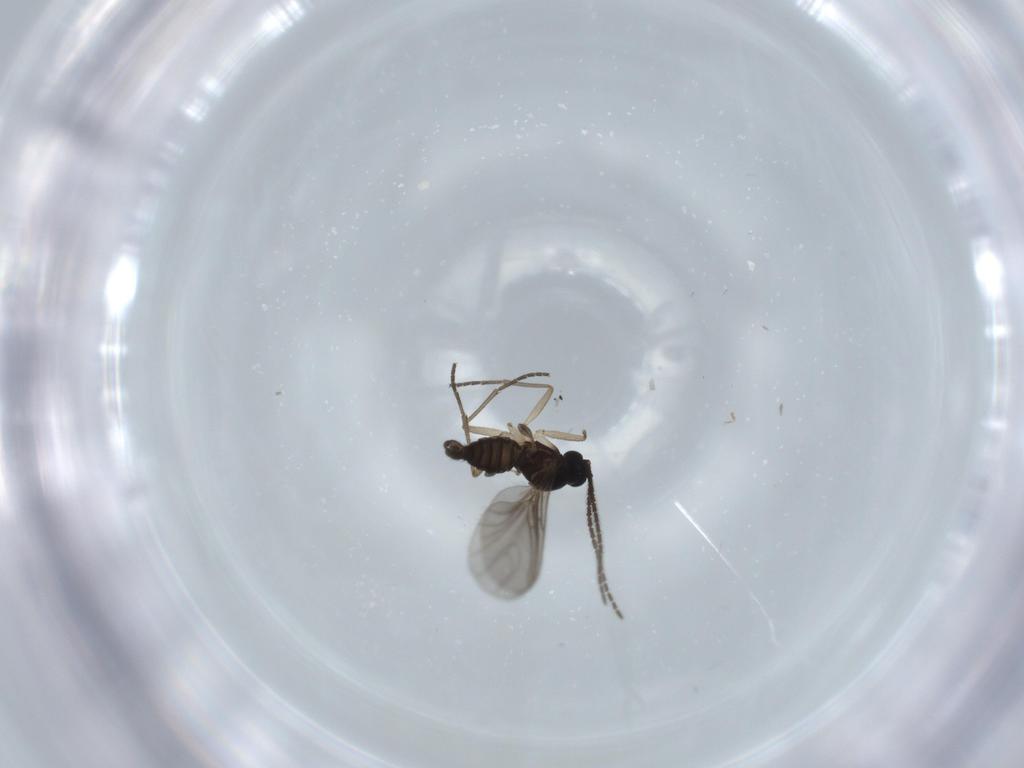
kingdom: Animalia
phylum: Arthropoda
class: Insecta
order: Diptera
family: Sciaridae
